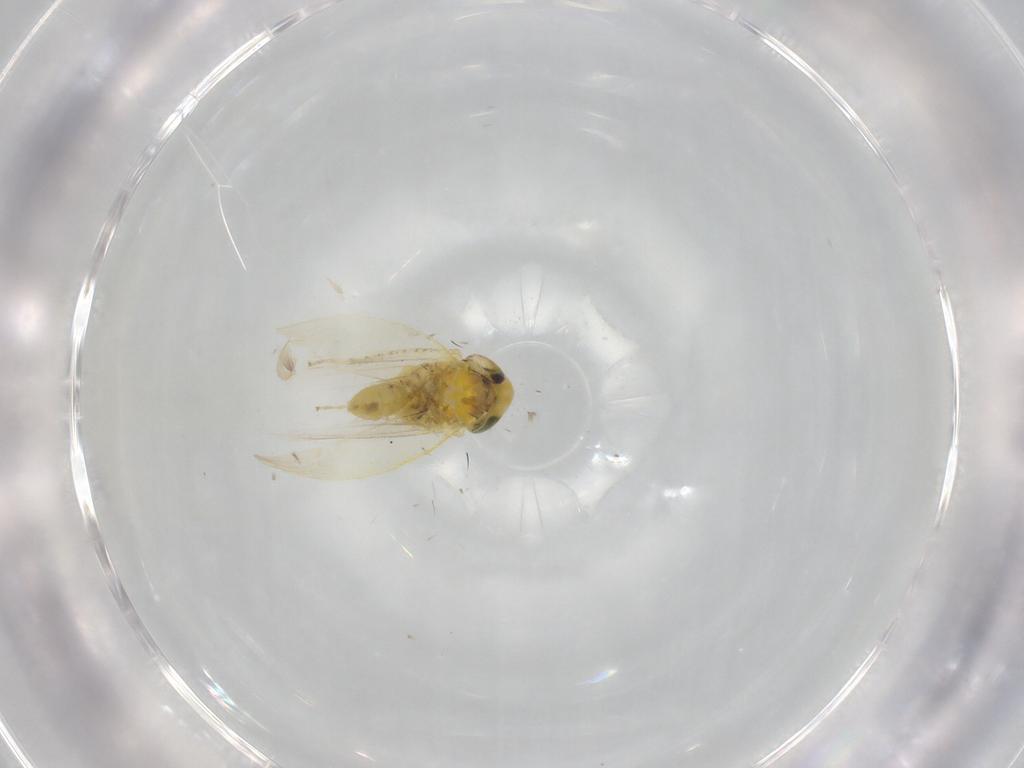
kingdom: Animalia
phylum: Arthropoda
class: Insecta
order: Hemiptera
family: Cicadellidae
